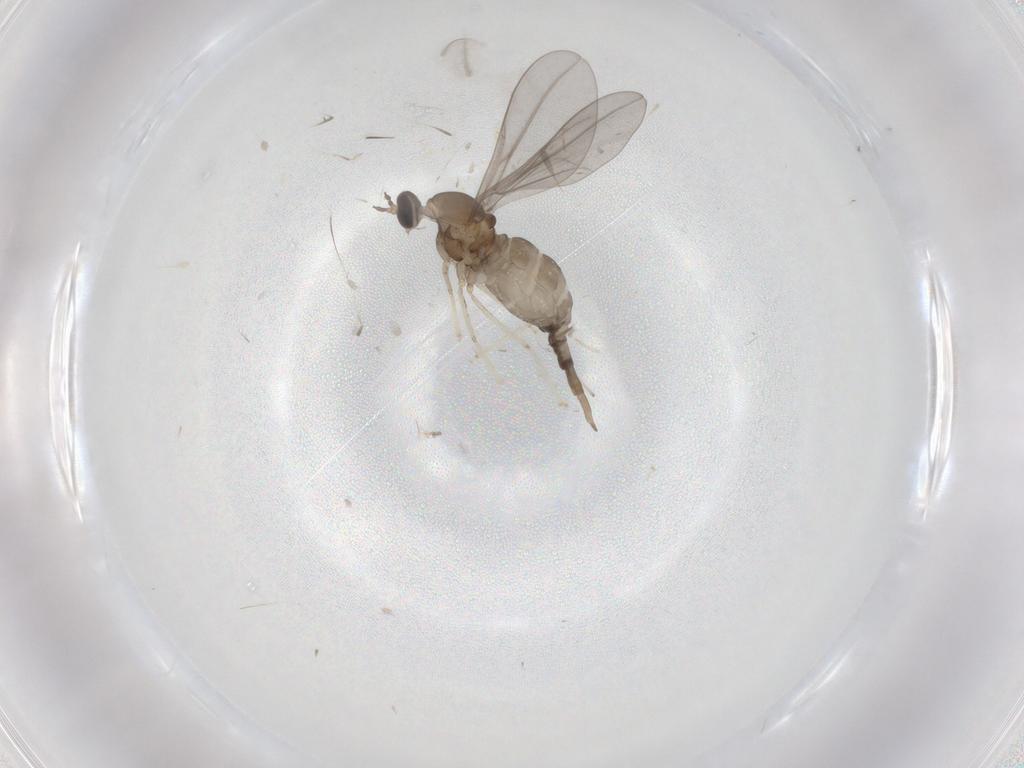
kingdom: Animalia
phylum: Arthropoda
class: Insecta
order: Diptera
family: Cecidomyiidae
